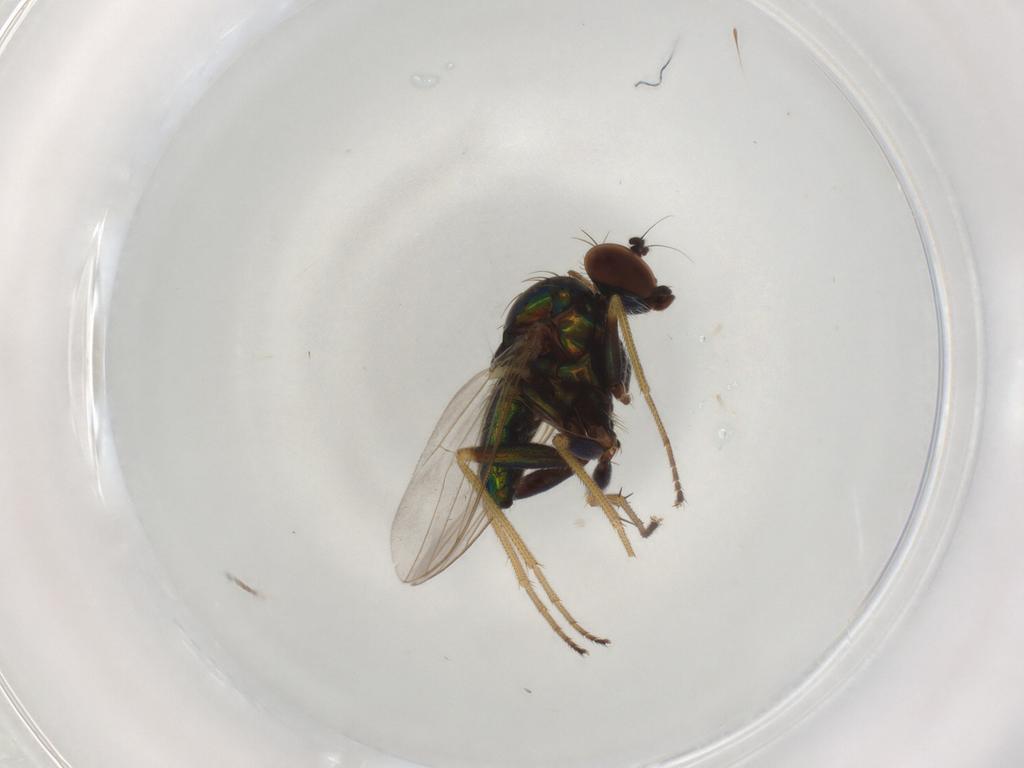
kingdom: Animalia
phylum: Arthropoda
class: Insecta
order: Diptera
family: Dolichopodidae
